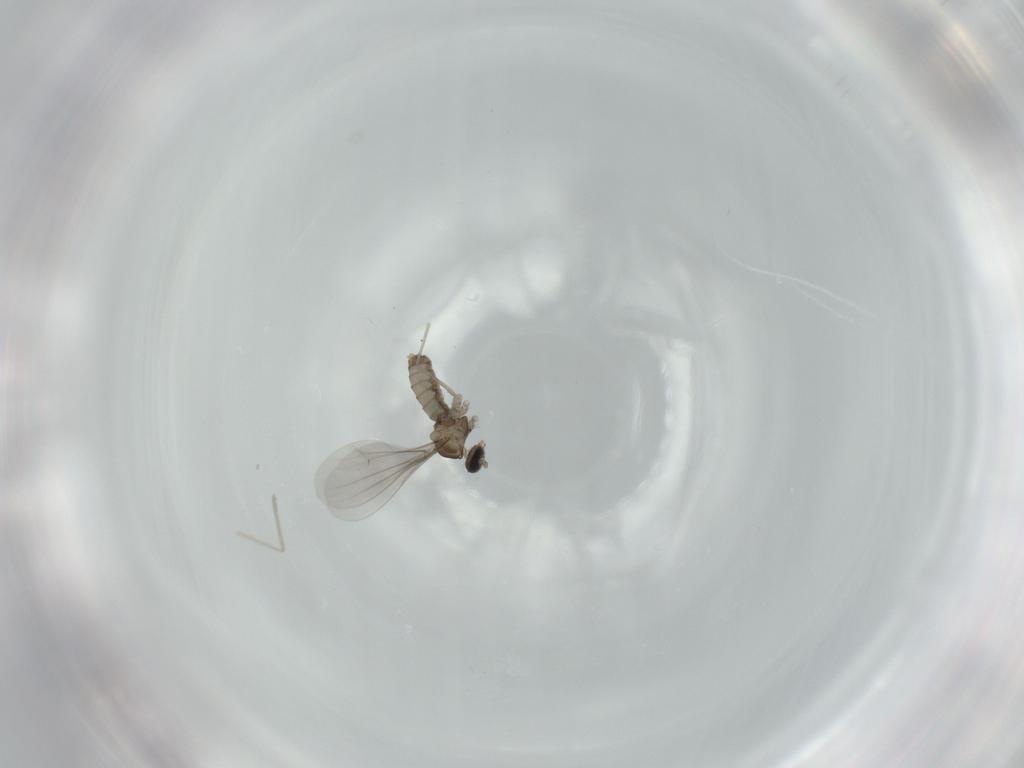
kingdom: Animalia
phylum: Arthropoda
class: Insecta
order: Diptera
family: Cecidomyiidae
